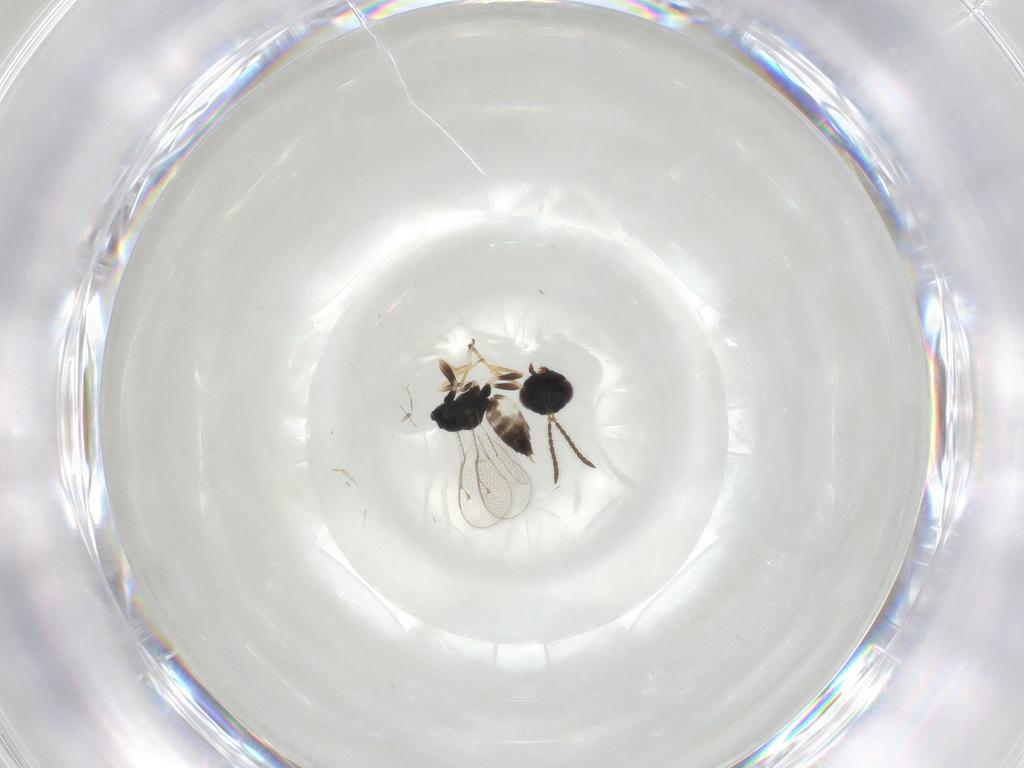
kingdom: Animalia
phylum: Arthropoda
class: Insecta
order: Hymenoptera
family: Pteromalidae
